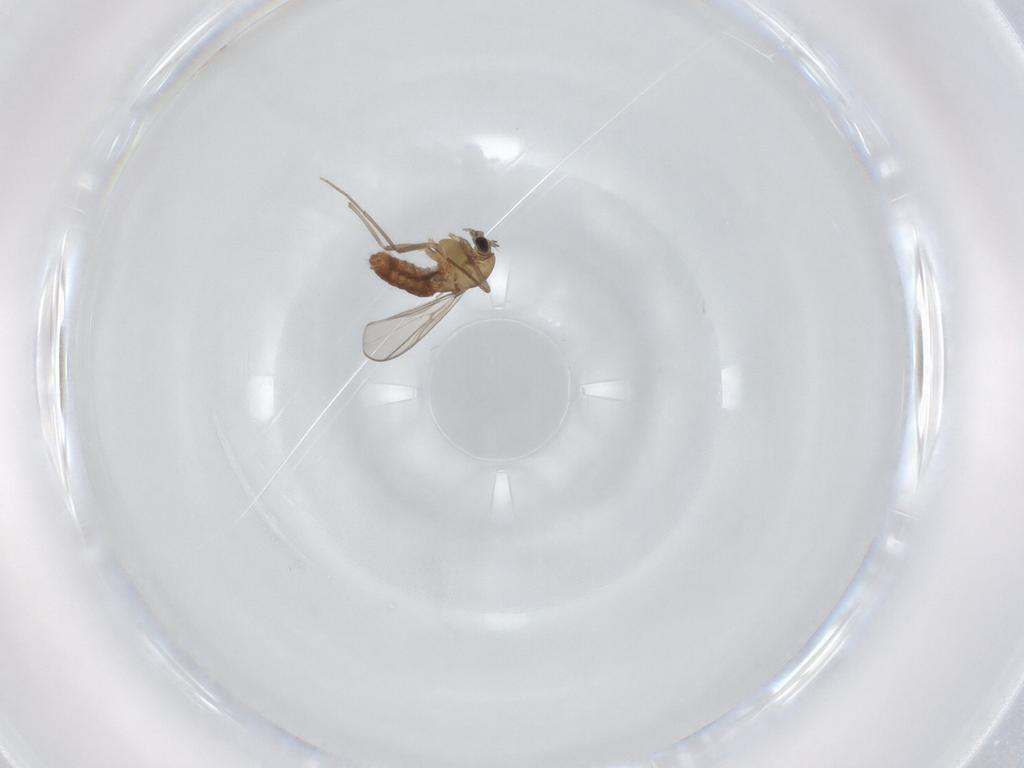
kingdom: Animalia
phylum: Arthropoda
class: Insecta
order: Diptera
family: Chironomidae
